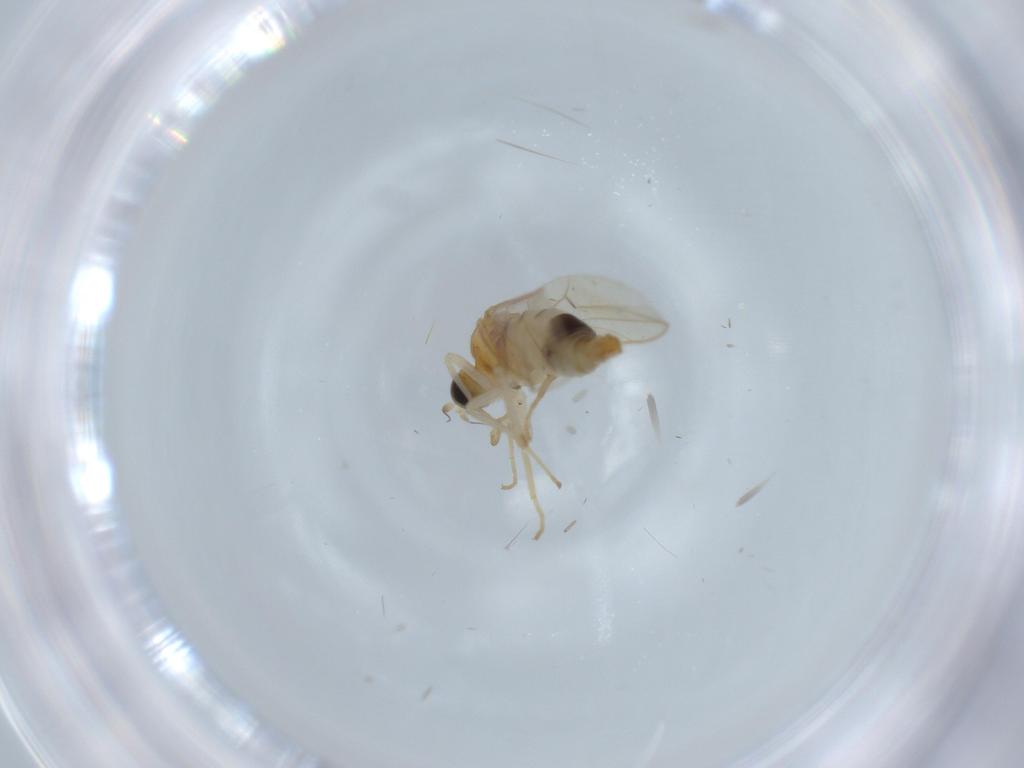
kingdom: Animalia
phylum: Arthropoda
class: Insecta
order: Diptera
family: Hybotidae
